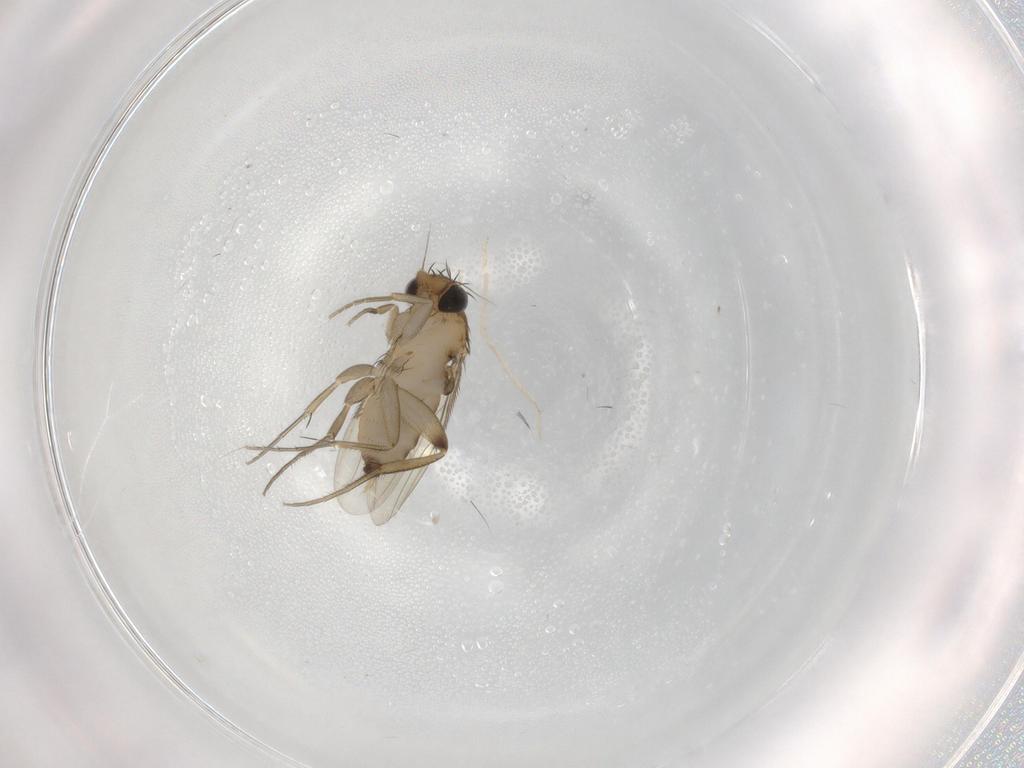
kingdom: Animalia
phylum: Arthropoda
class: Insecta
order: Diptera
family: Phoridae
